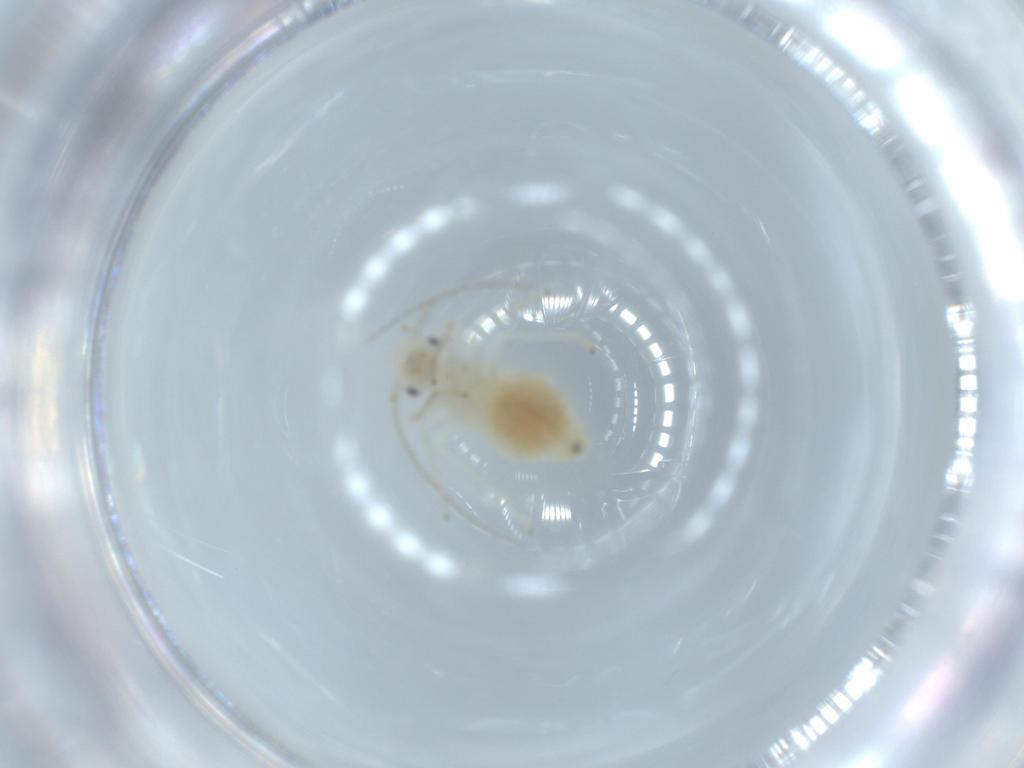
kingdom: Animalia
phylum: Arthropoda
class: Insecta
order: Psocodea
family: Caeciliusidae
